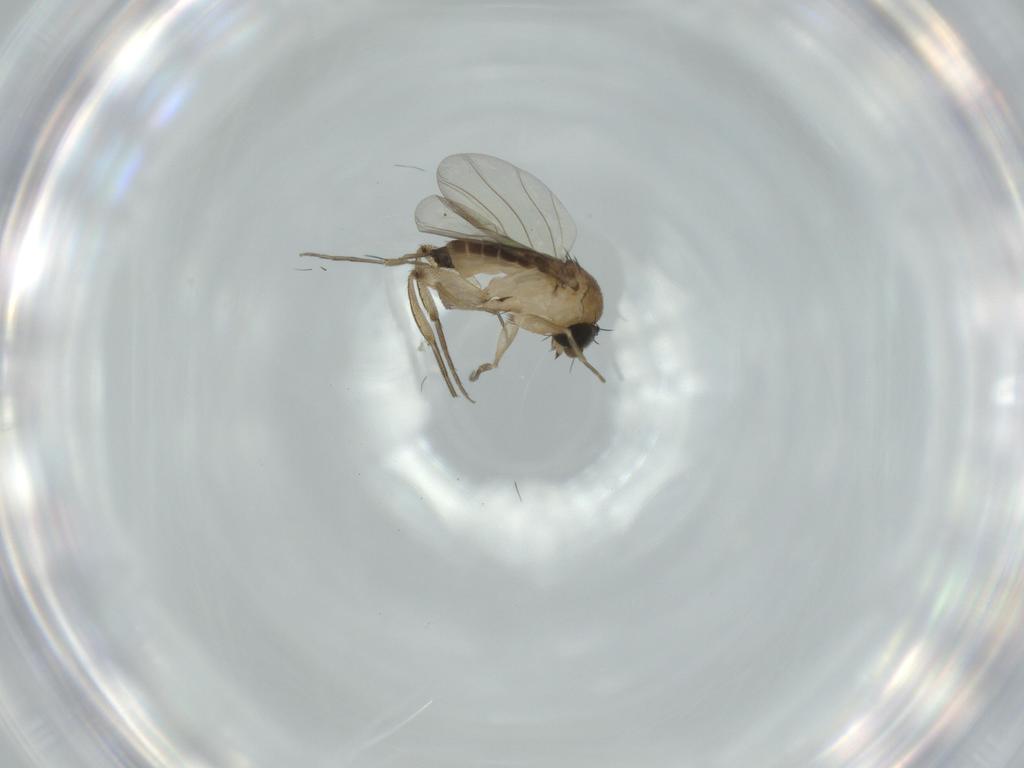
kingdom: Animalia
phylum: Arthropoda
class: Insecta
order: Diptera
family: Phoridae
